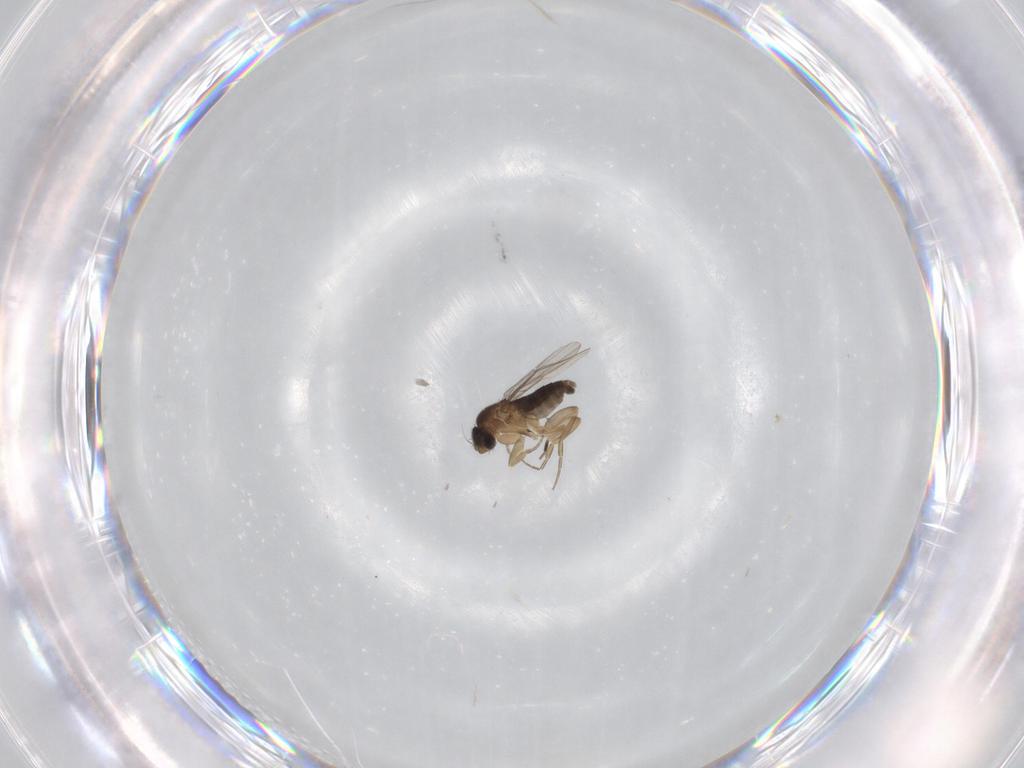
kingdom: Animalia
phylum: Arthropoda
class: Insecta
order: Diptera
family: Cecidomyiidae
